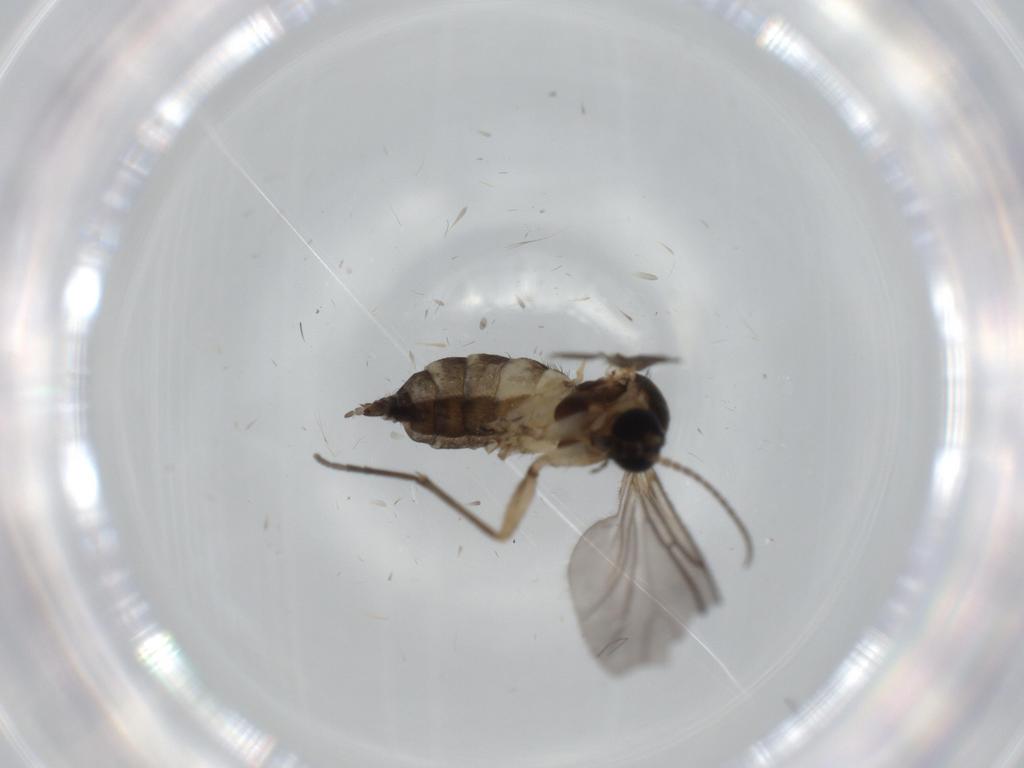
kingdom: Animalia
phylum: Arthropoda
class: Insecta
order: Diptera
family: Sciaridae
